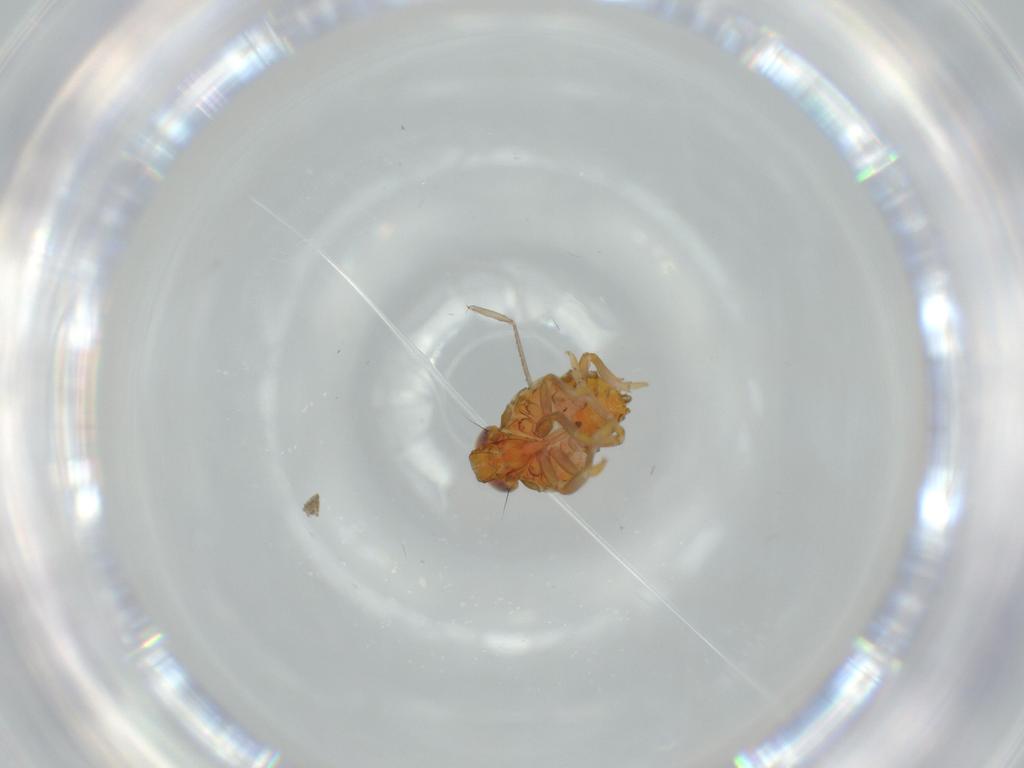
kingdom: Animalia
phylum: Arthropoda
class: Insecta
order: Hemiptera
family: Issidae
